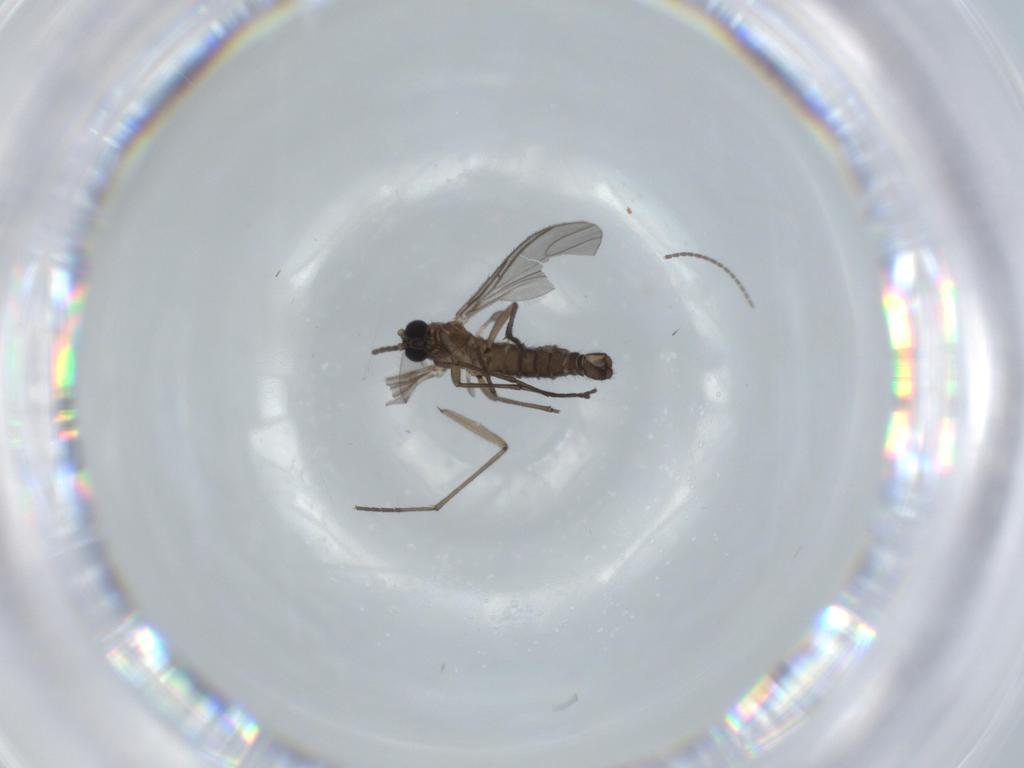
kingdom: Animalia
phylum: Arthropoda
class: Insecta
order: Diptera
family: Sciaridae
